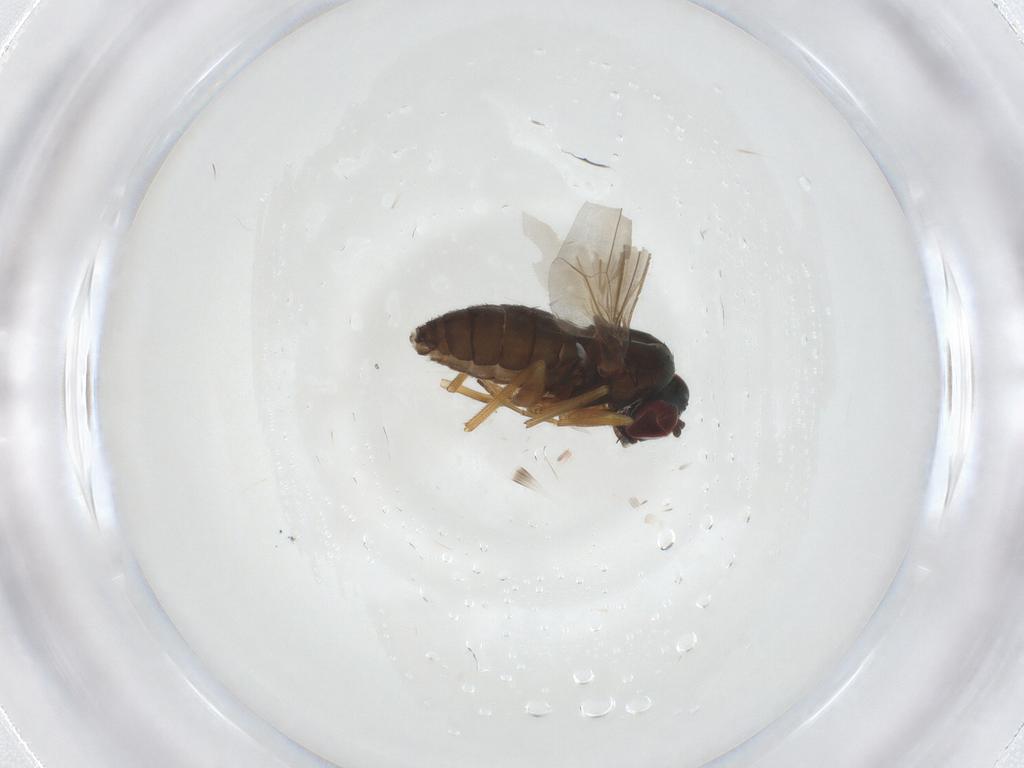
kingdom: Animalia
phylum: Arthropoda
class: Insecta
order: Diptera
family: Dolichopodidae
